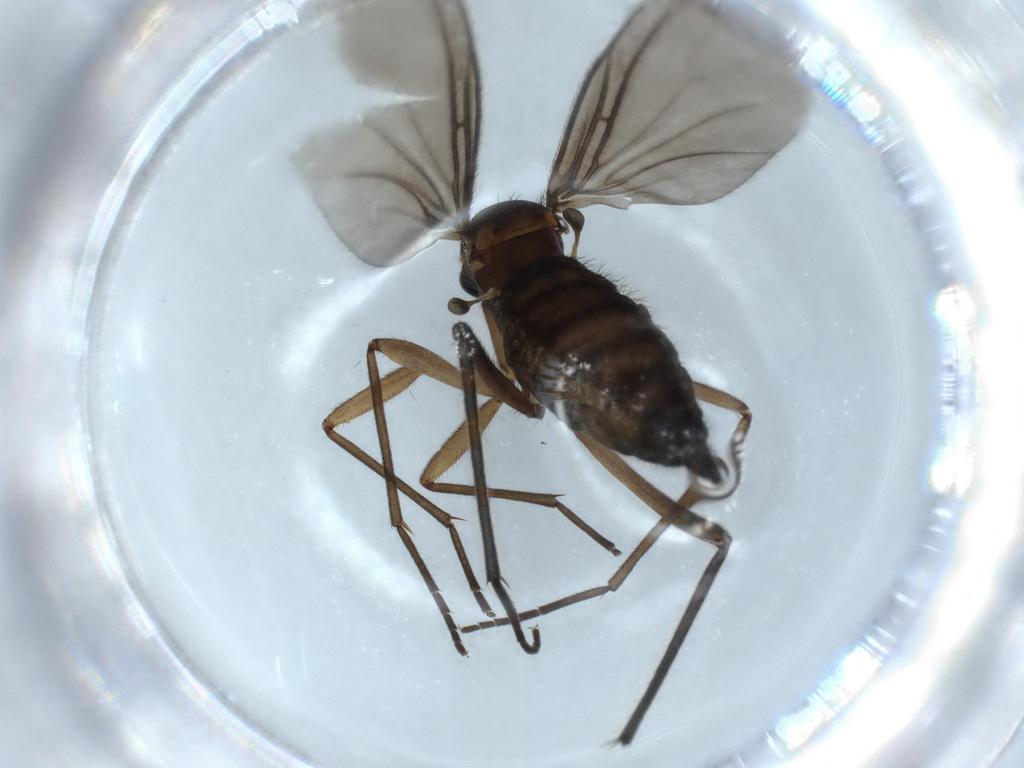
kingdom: Animalia
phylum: Arthropoda
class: Insecta
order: Diptera
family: Sciaridae
